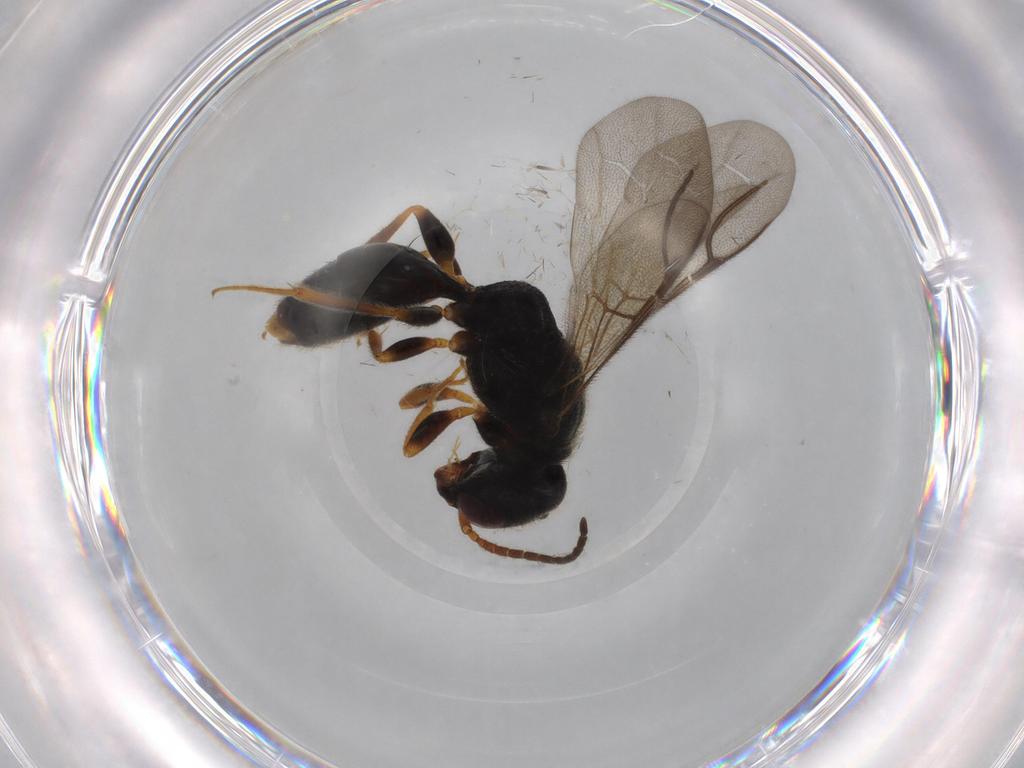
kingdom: Animalia
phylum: Arthropoda
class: Insecta
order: Hymenoptera
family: Bethylidae
